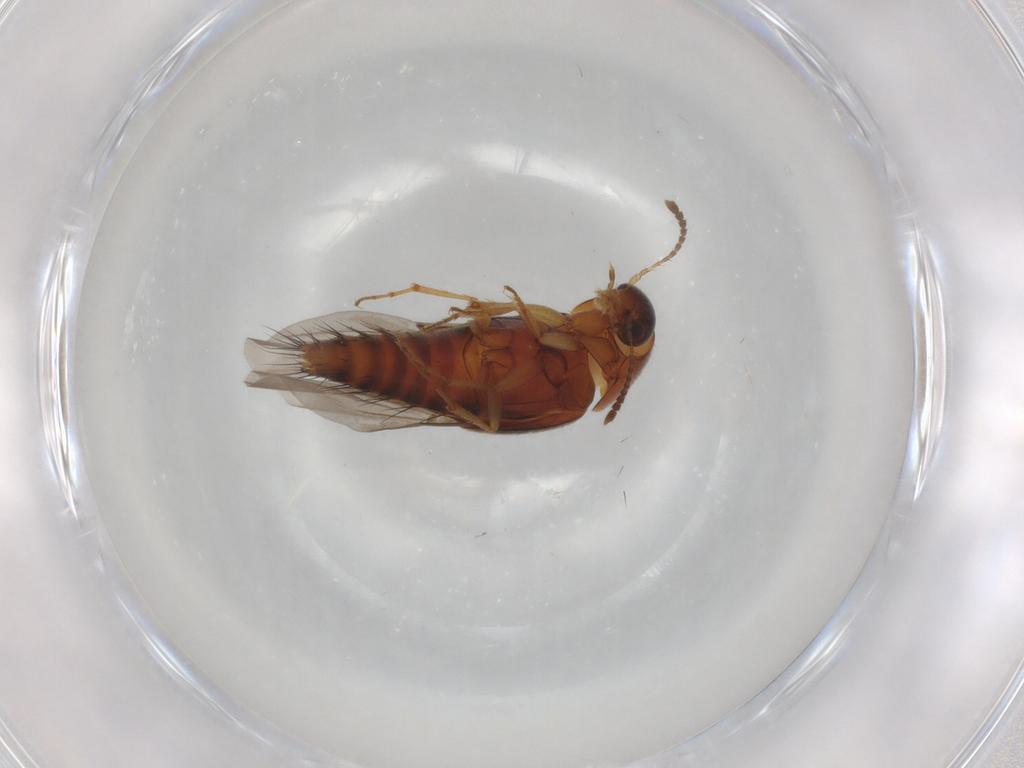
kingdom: Animalia
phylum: Arthropoda
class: Insecta
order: Coleoptera
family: Staphylinidae
